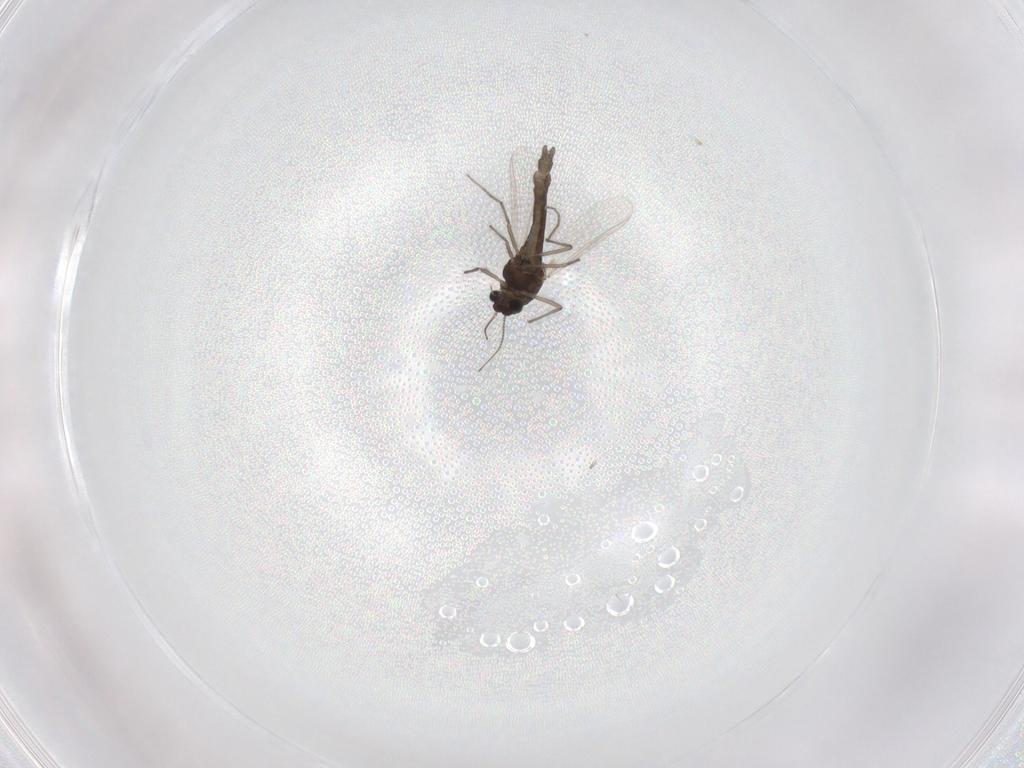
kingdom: Animalia
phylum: Arthropoda
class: Insecta
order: Diptera
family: Chironomidae
